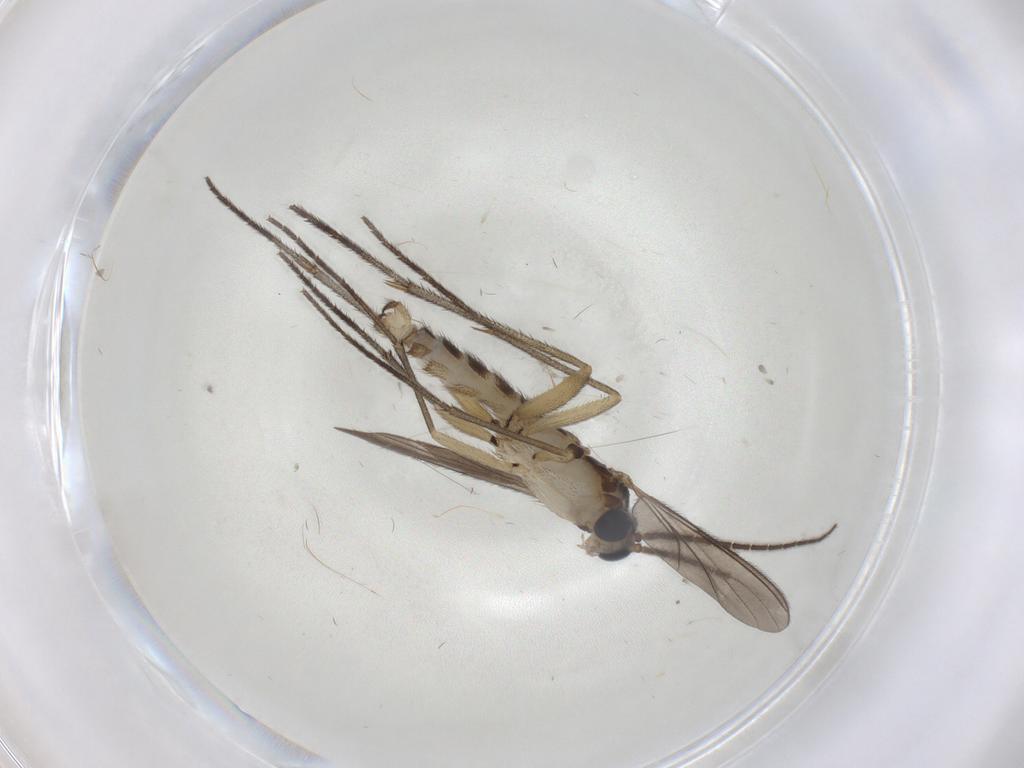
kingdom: Animalia
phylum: Arthropoda
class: Insecta
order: Diptera
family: Sciaridae
